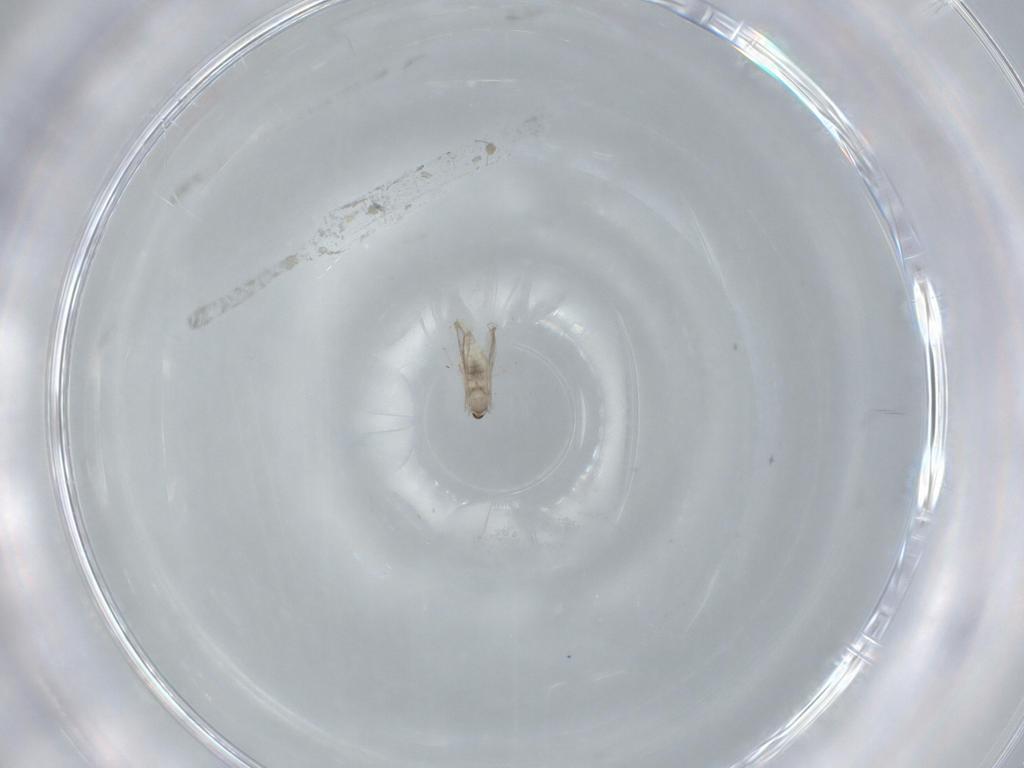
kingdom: Animalia
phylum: Arthropoda
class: Insecta
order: Diptera
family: Cecidomyiidae
